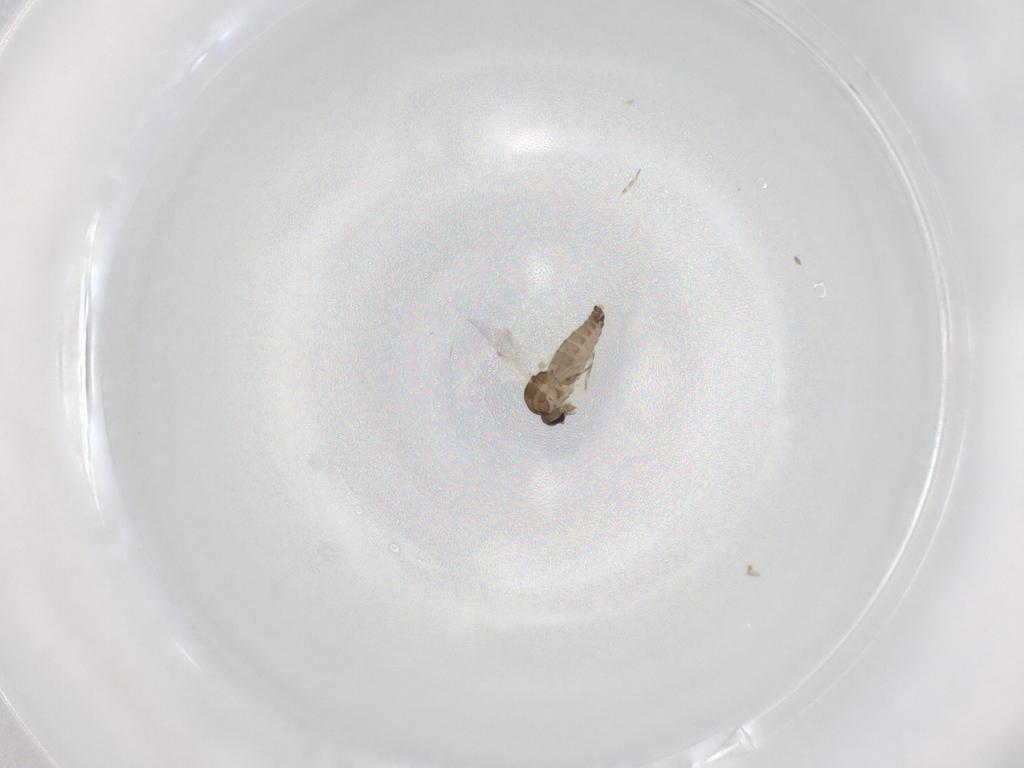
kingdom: Animalia
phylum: Arthropoda
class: Insecta
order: Diptera
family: Ceratopogonidae
